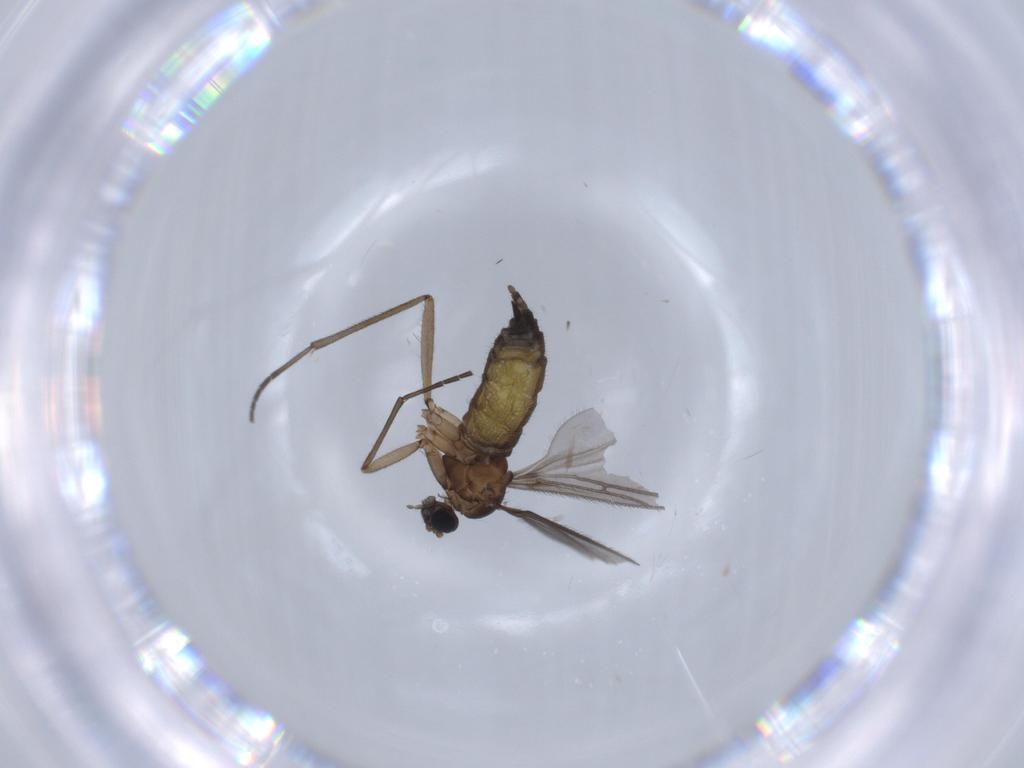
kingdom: Animalia
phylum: Arthropoda
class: Insecta
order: Diptera
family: Sciaridae
